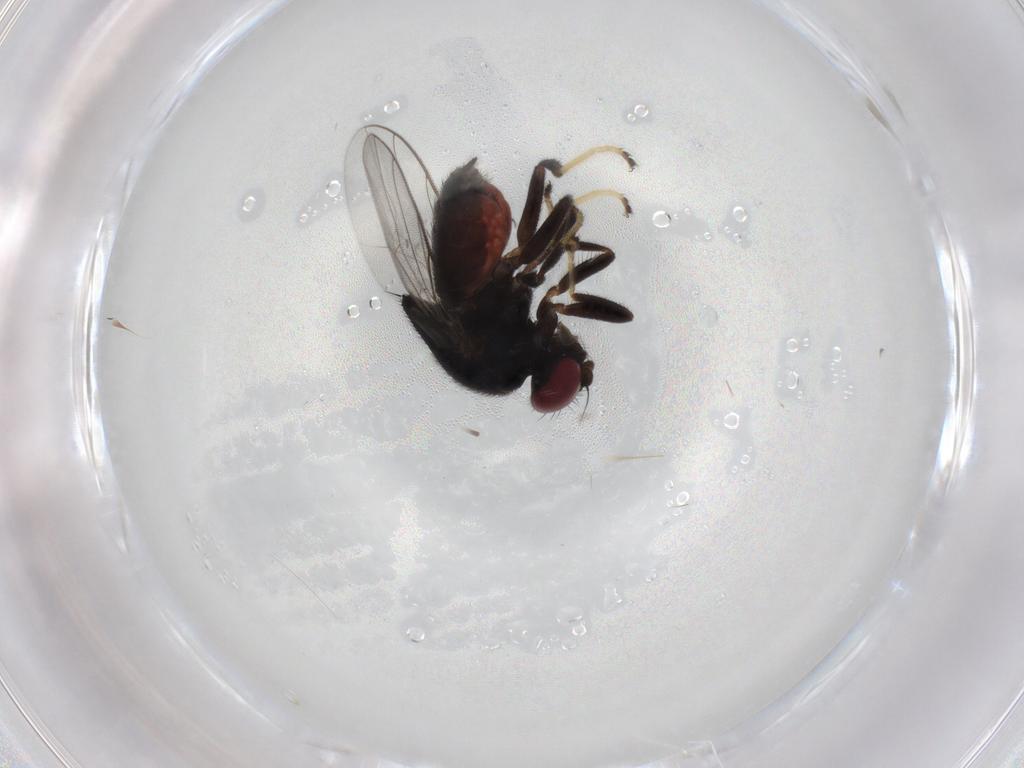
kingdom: Animalia
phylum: Arthropoda
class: Insecta
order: Diptera
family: Chloropidae
